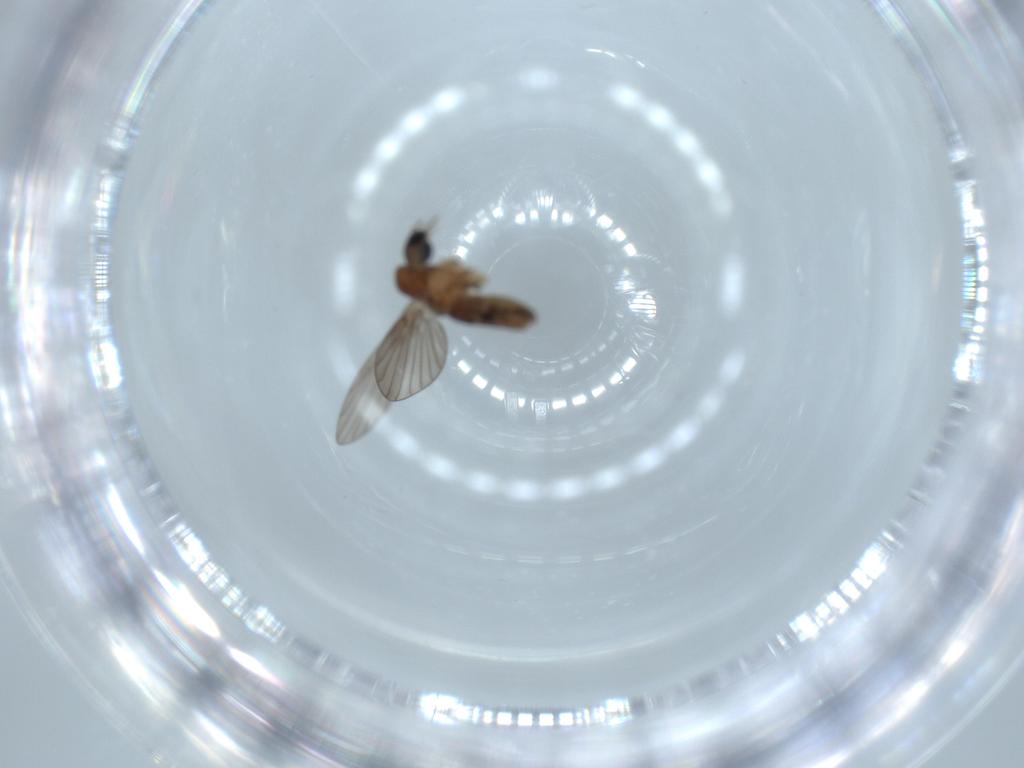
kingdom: Animalia
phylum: Arthropoda
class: Insecta
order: Diptera
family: Psychodidae
